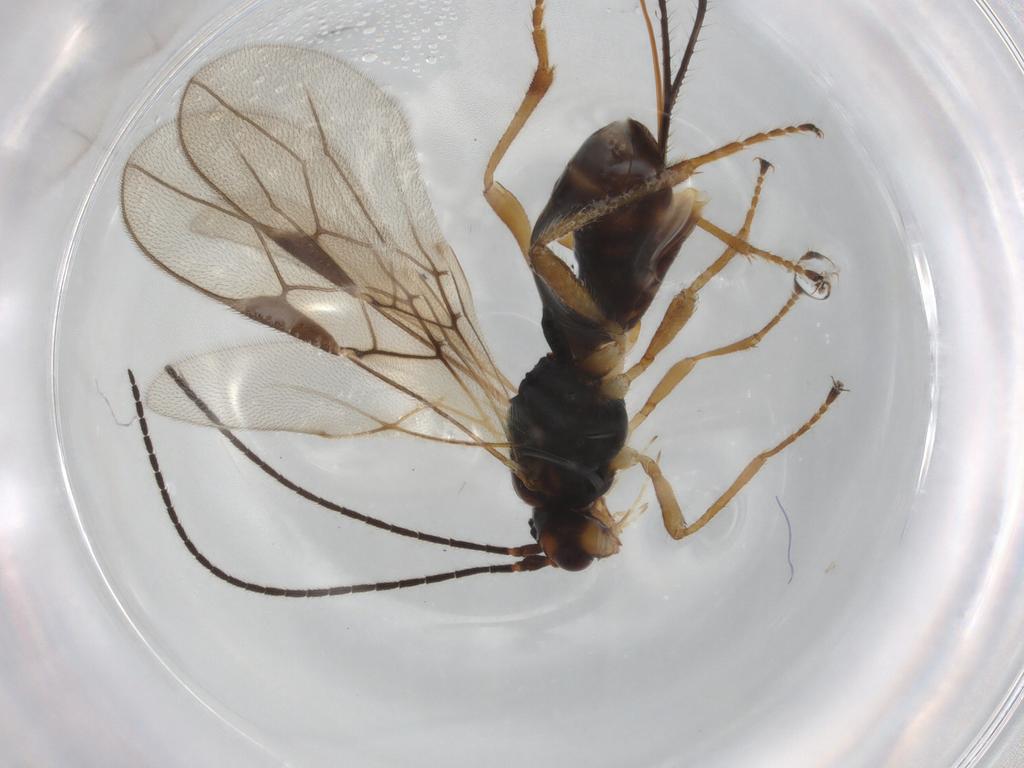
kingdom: Animalia
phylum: Arthropoda
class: Insecta
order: Hymenoptera
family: Braconidae
